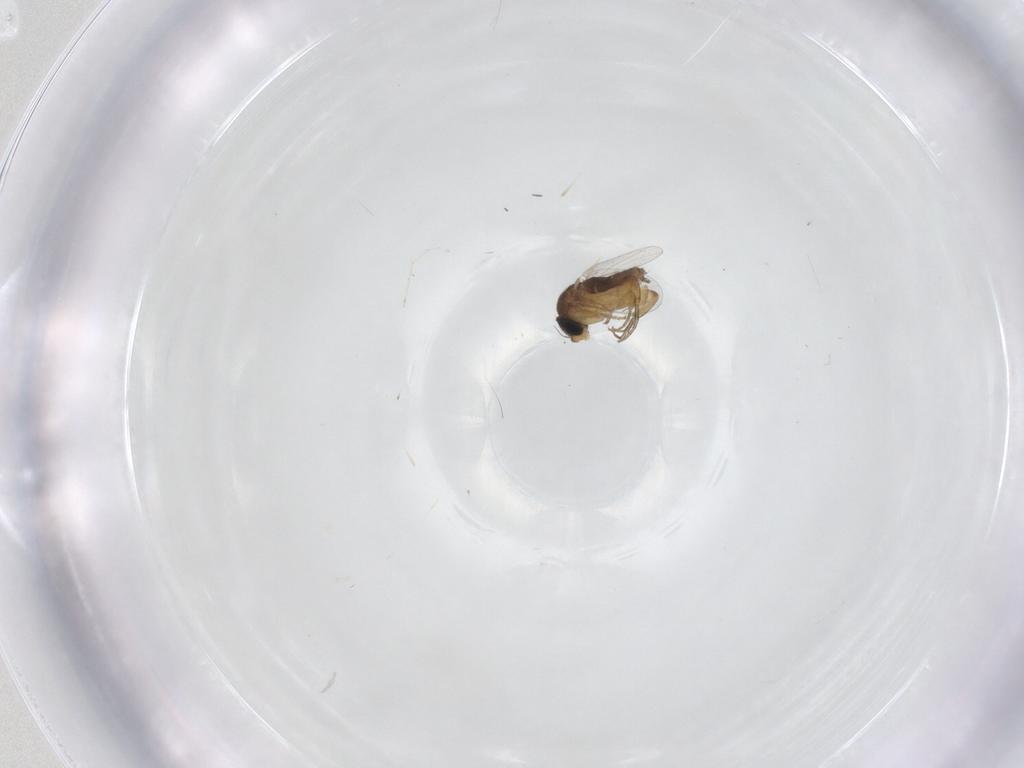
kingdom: Animalia
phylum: Arthropoda
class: Insecta
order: Diptera
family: Phoridae
